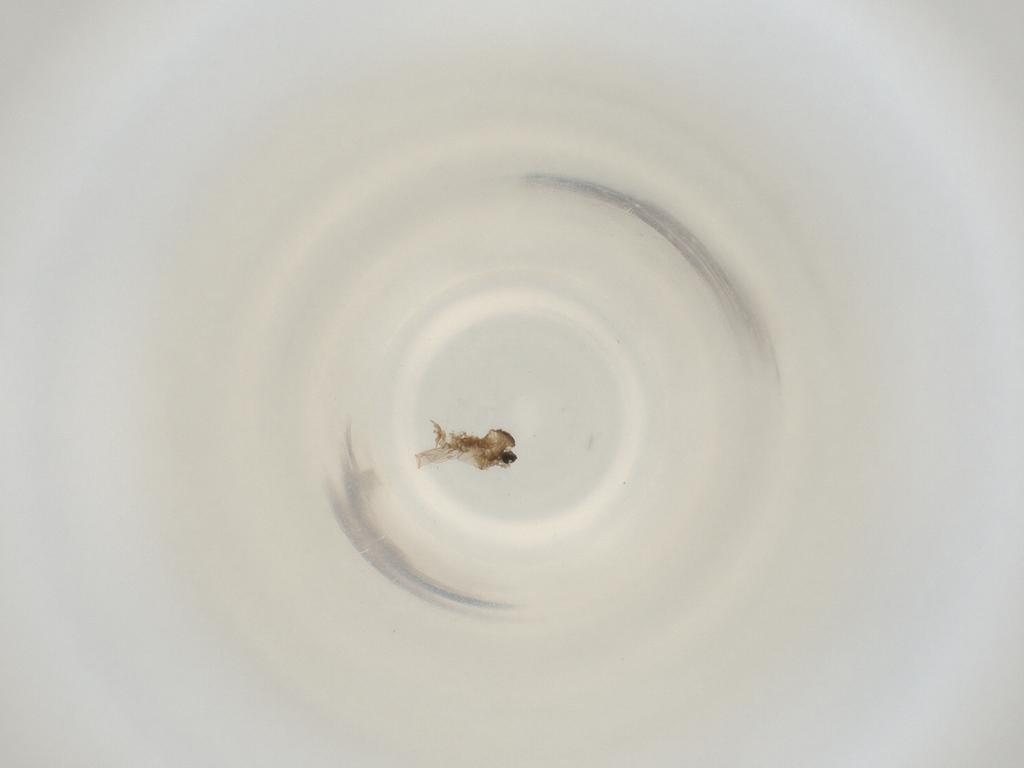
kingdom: Animalia
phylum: Arthropoda
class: Insecta
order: Diptera
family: Cecidomyiidae
